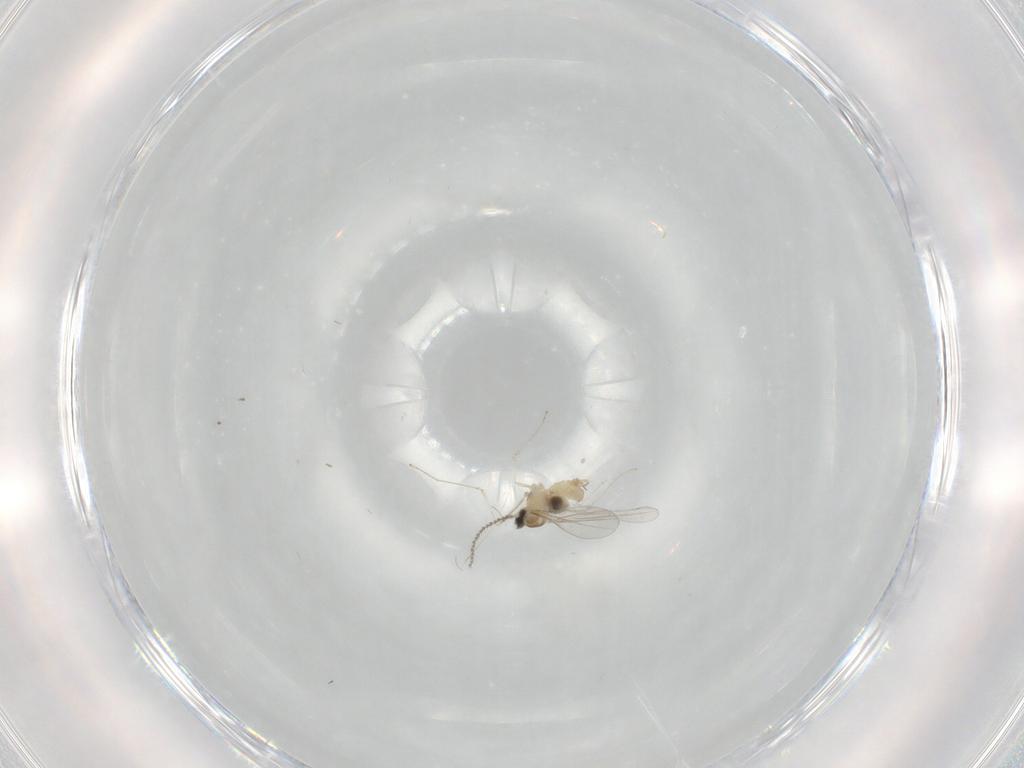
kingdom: Animalia
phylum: Arthropoda
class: Insecta
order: Diptera
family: Cecidomyiidae
